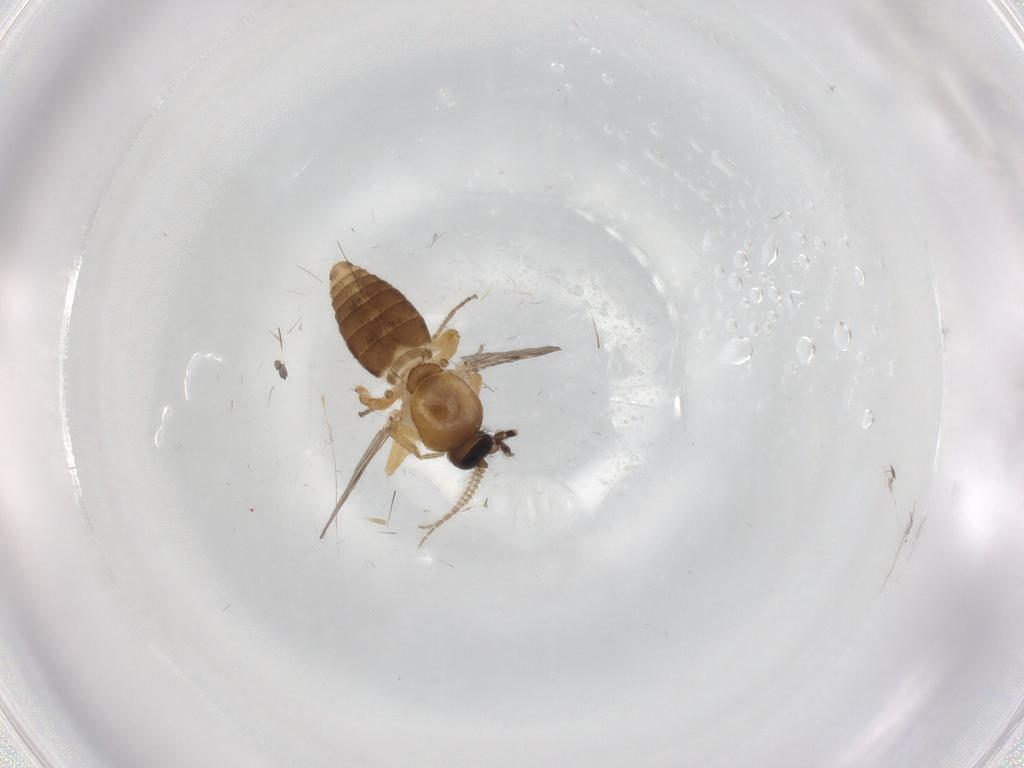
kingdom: Animalia
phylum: Arthropoda
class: Insecta
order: Diptera
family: Ceratopogonidae
